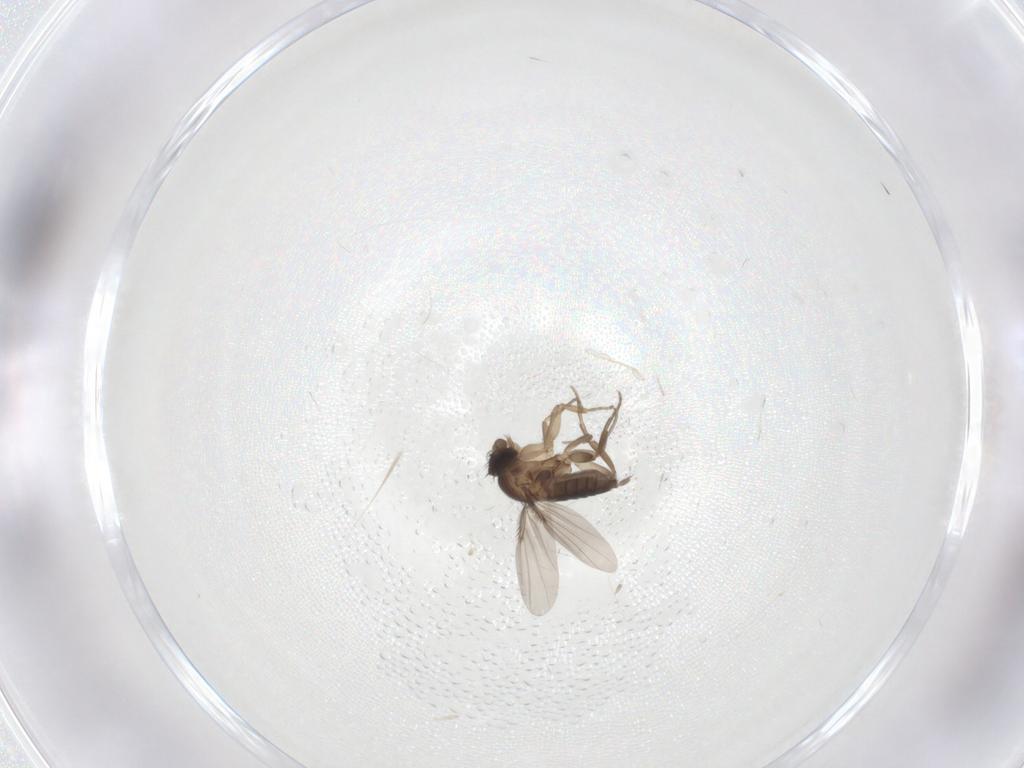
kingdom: Animalia
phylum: Arthropoda
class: Insecta
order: Diptera
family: Phoridae
